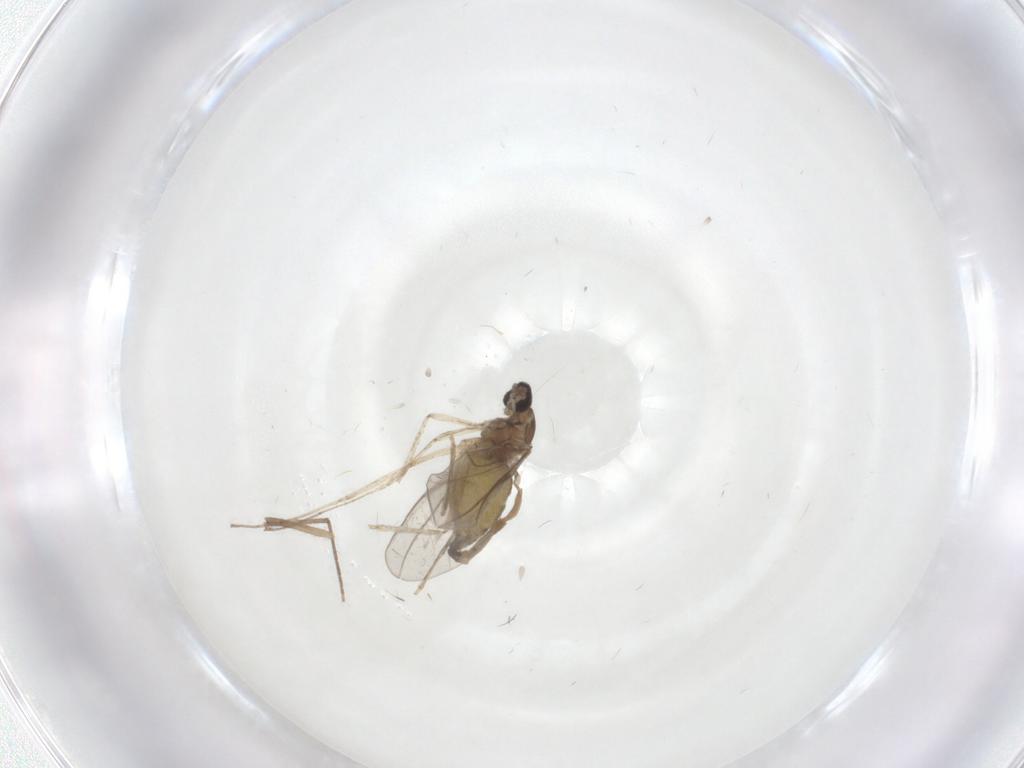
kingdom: Animalia
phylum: Arthropoda
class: Insecta
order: Diptera
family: Cecidomyiidae
